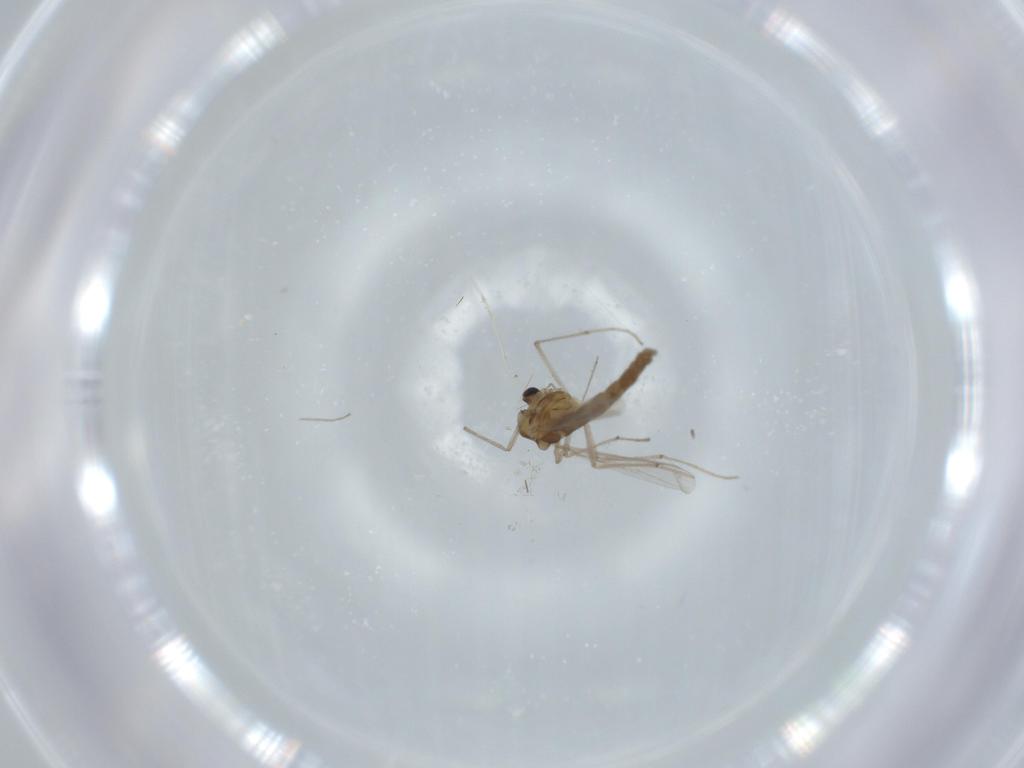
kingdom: Animalia
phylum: Arthropoda
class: Insecta
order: Diptera
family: Chironomidae
